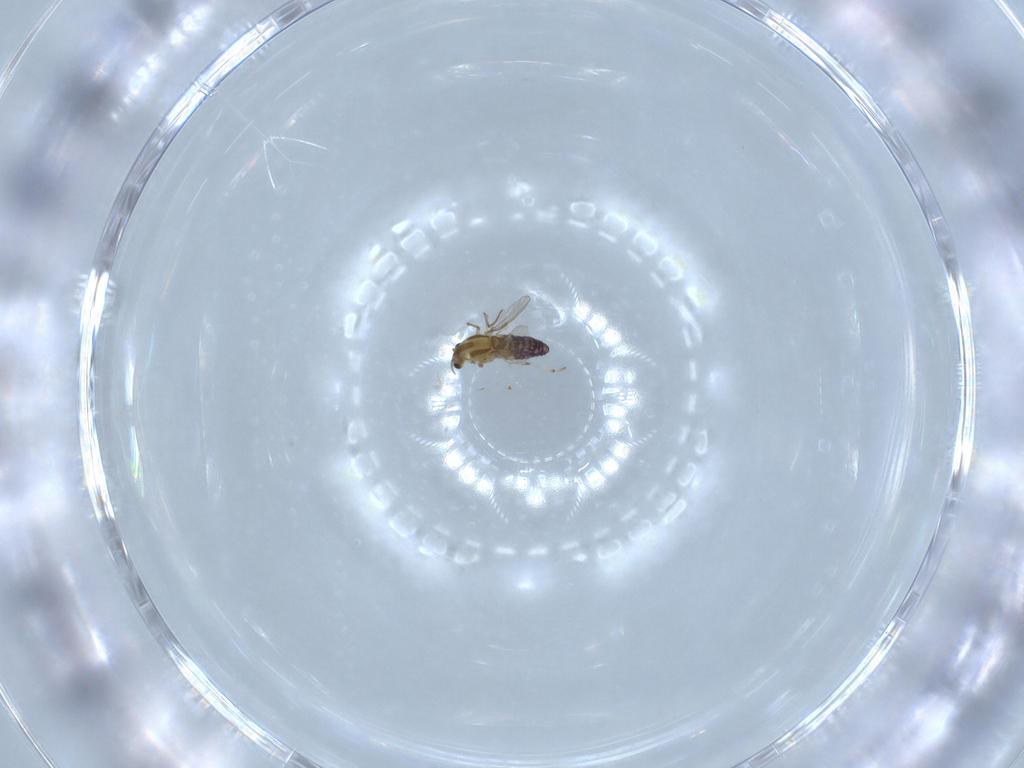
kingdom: Animalia
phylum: Arthropoda
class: Insecta
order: Diptera
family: Chironomidae
